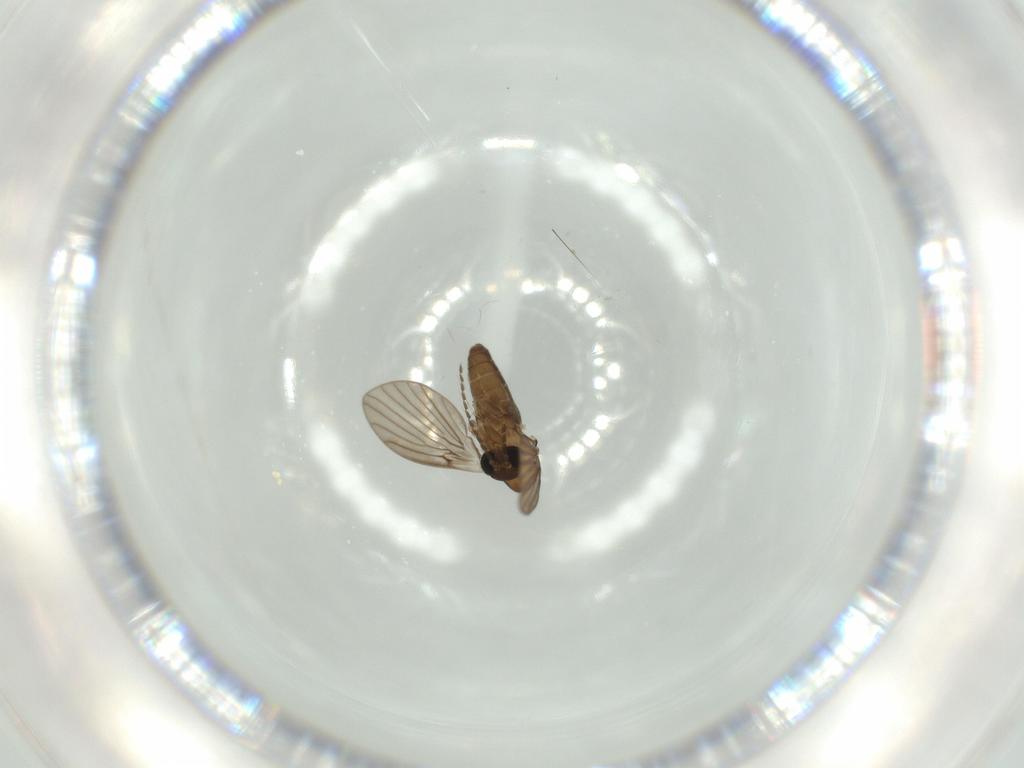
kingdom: Animalia
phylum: Arthropoda
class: Insecta
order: Diptera
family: Psychodidae
